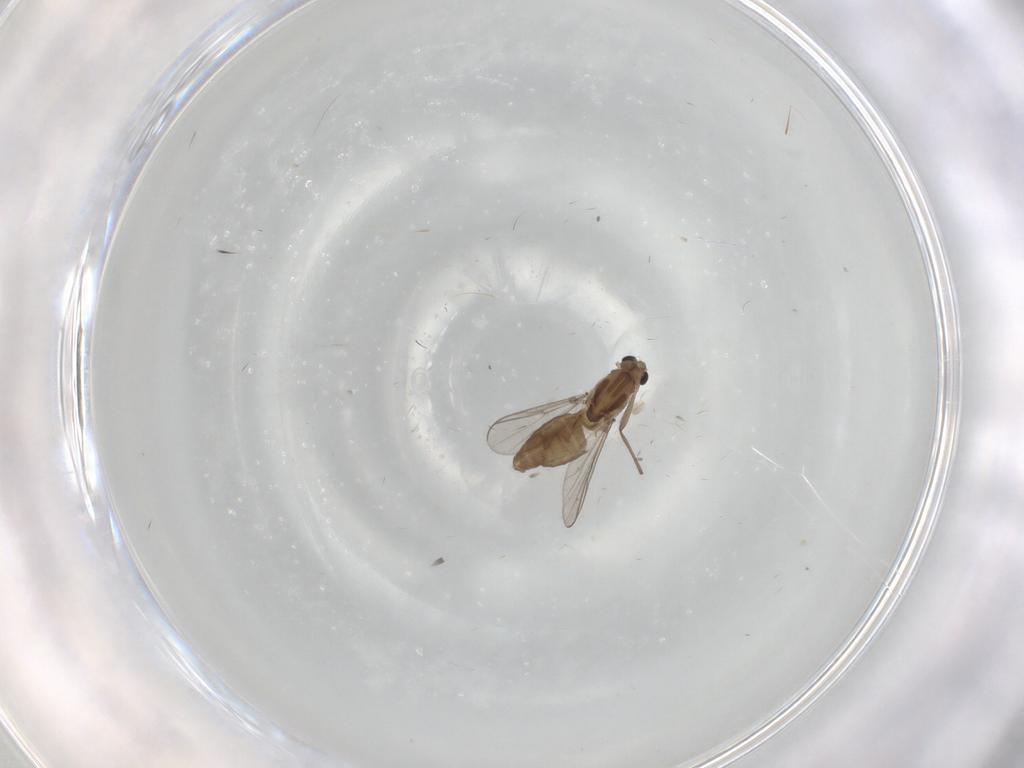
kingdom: Animalia
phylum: Arthropoda
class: Insecta
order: Diptera
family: Chironomidae
